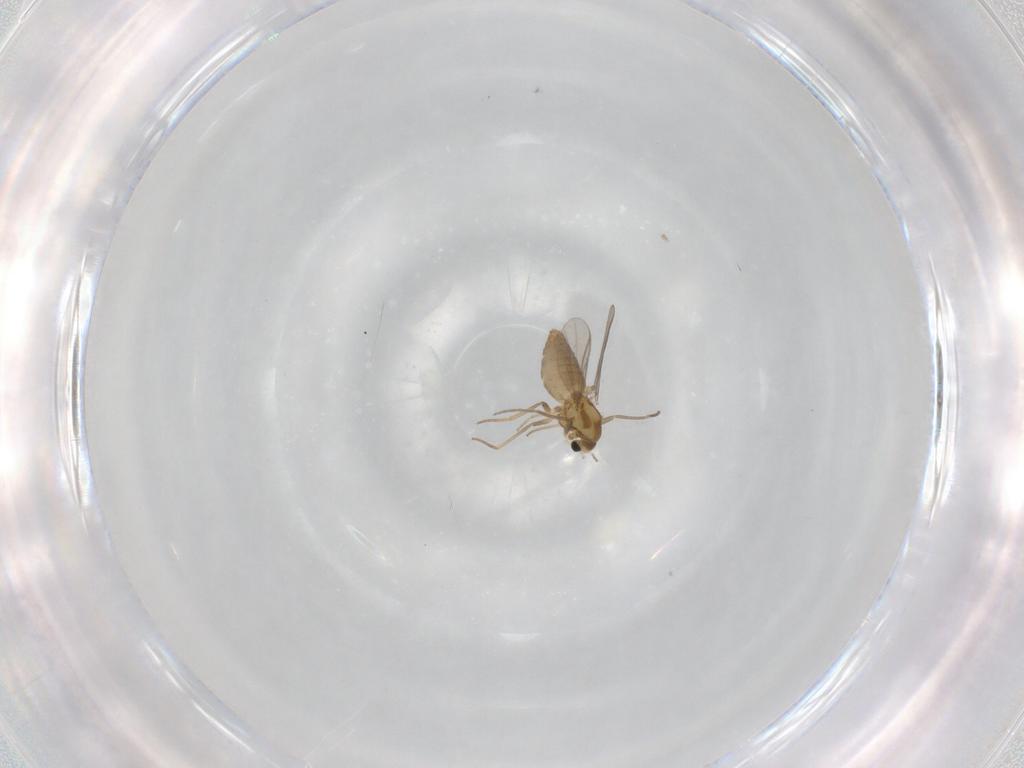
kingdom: Animalia
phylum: Arthropoda
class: Insecta
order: Diptera
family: Chironomidae
